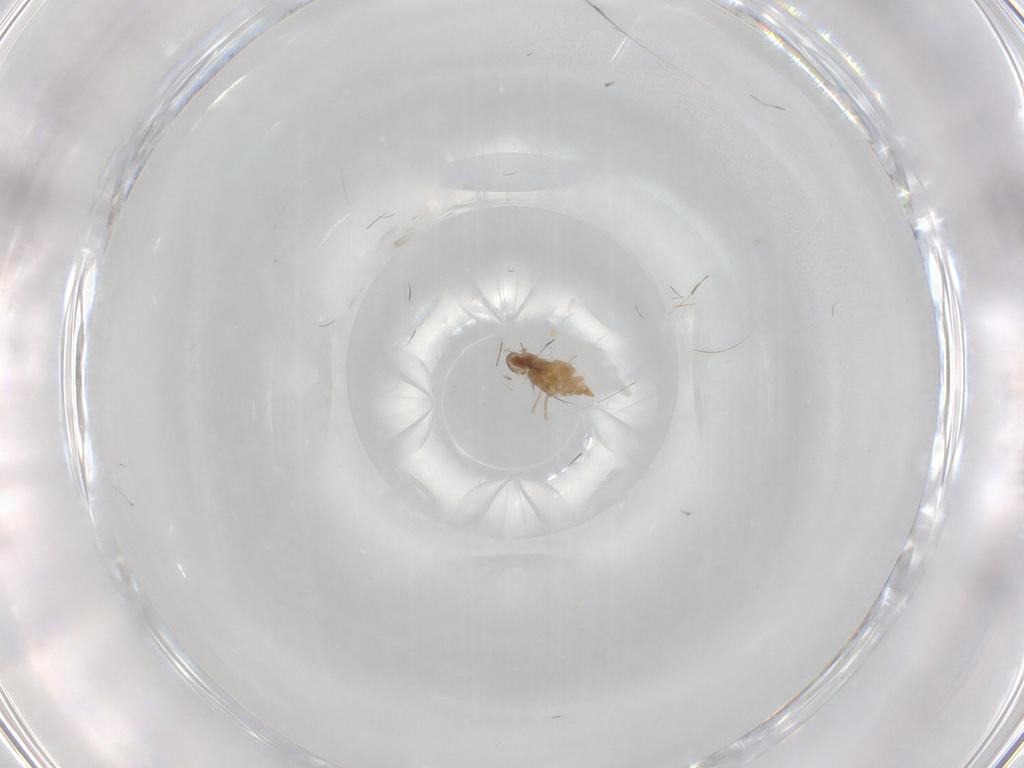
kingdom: Animalia
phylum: Arthropoda
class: Insecta
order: Diptera
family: Cecidomyiidae
